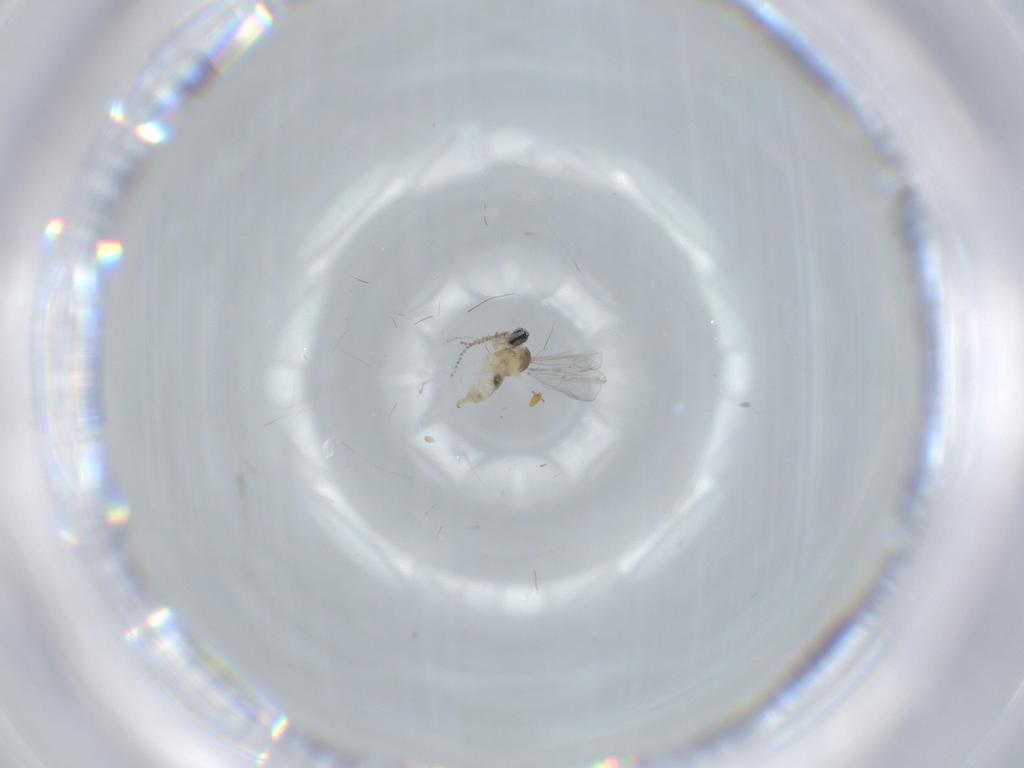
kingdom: Animalia
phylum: Arthropoda
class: Insecta
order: Diptera
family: Cecidomyiidae
